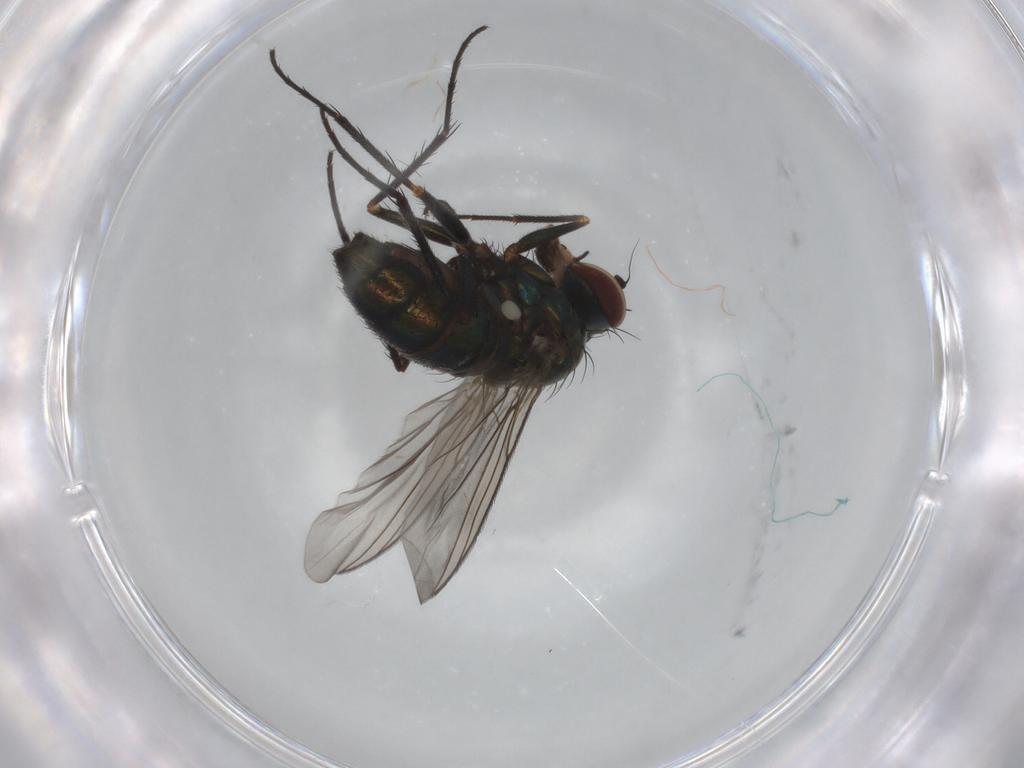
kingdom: Animalia
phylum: Arthropoda
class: Insecta
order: Diptera
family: Dolichopodidae
